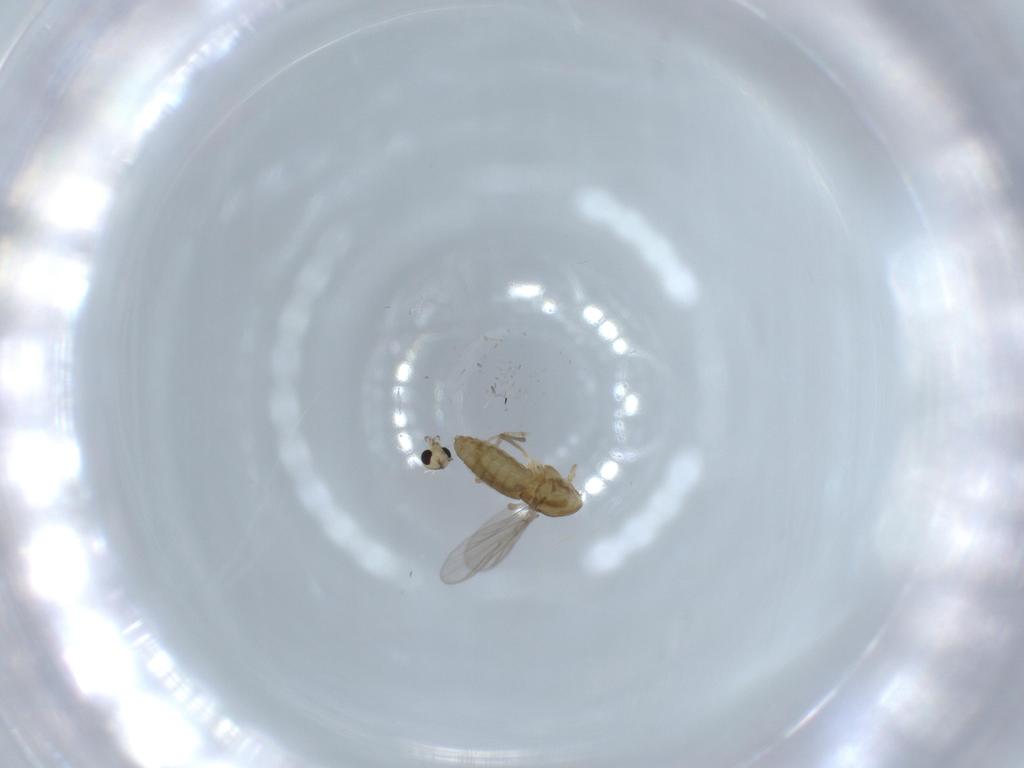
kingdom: Animalia
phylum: Arthropoda
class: Insecta
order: Diptera
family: Chironomidae
